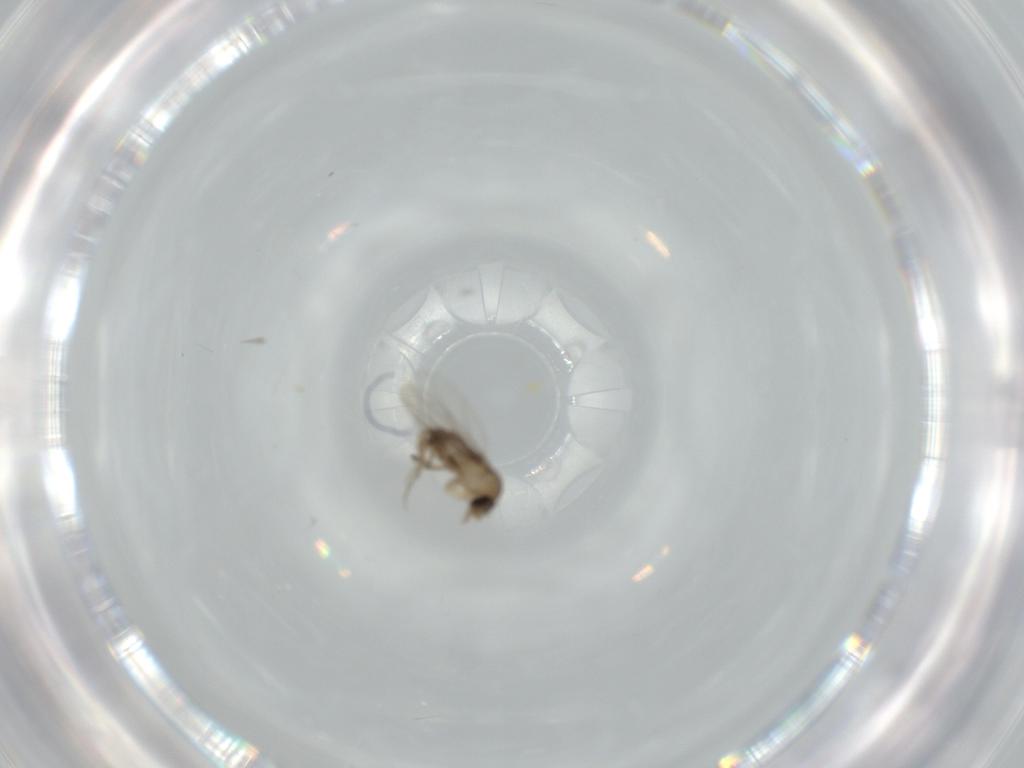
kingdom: Animalia
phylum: Arthropoda
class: Insecta
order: Diptera
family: Phoridae
